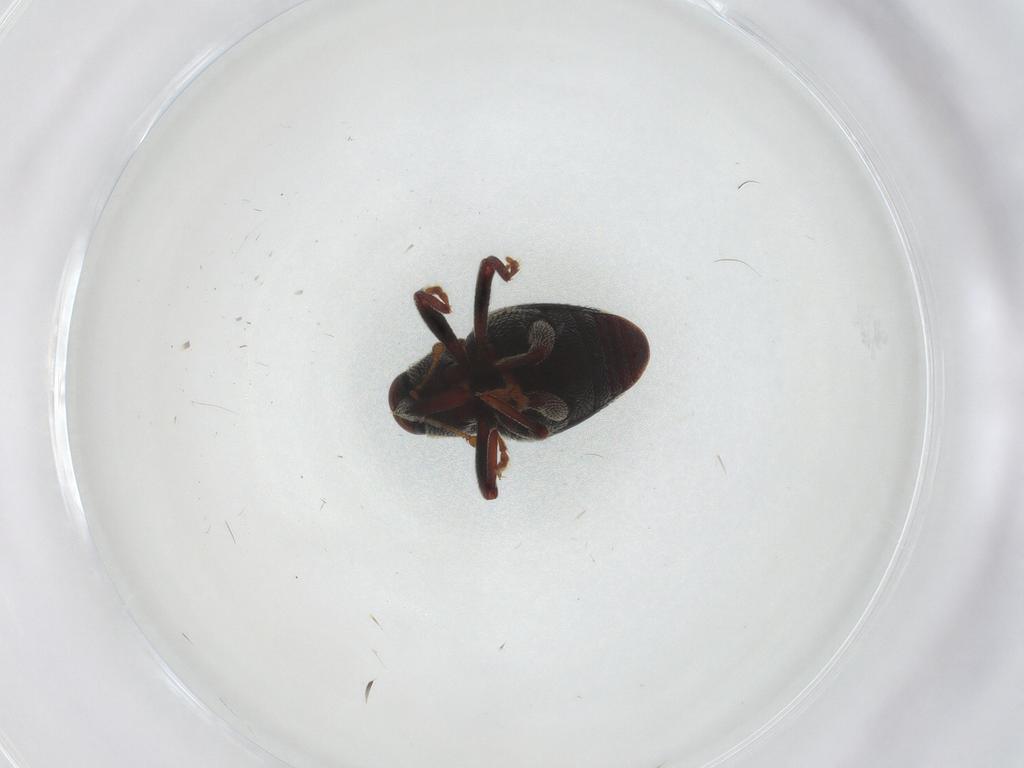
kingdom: Animalia
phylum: Arthropoda
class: Insecta
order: Coleoptera
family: Curculionidae
